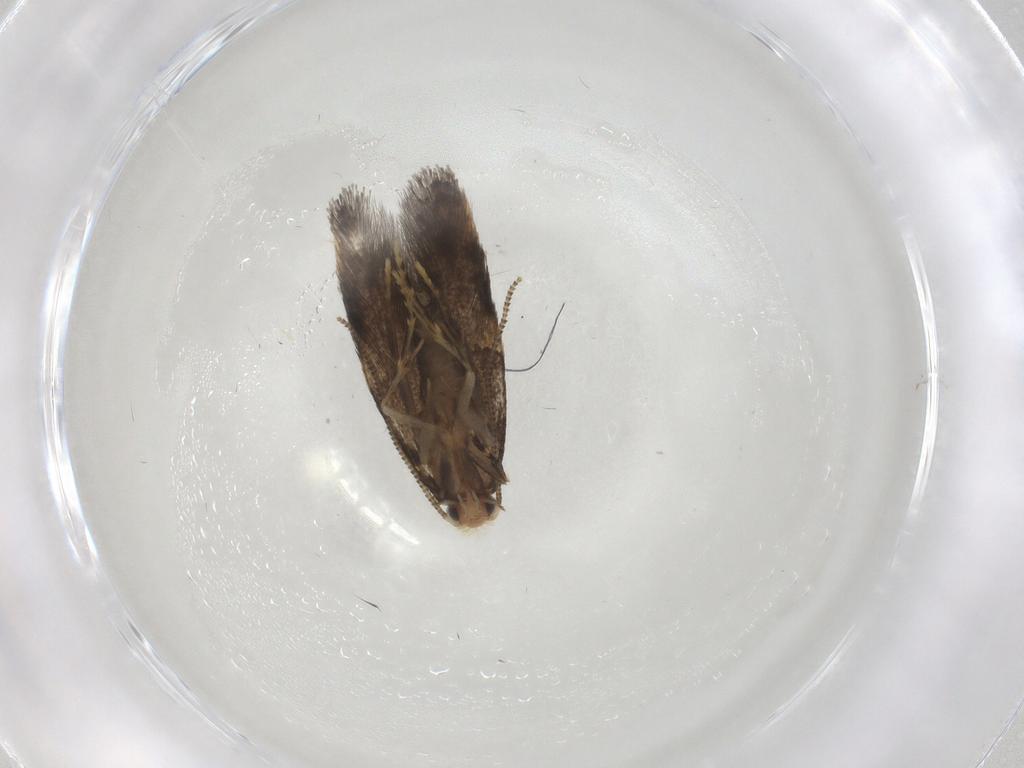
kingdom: Animalia
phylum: Arthropoda
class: Insecta
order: Lepidoptera
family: Tineidae
